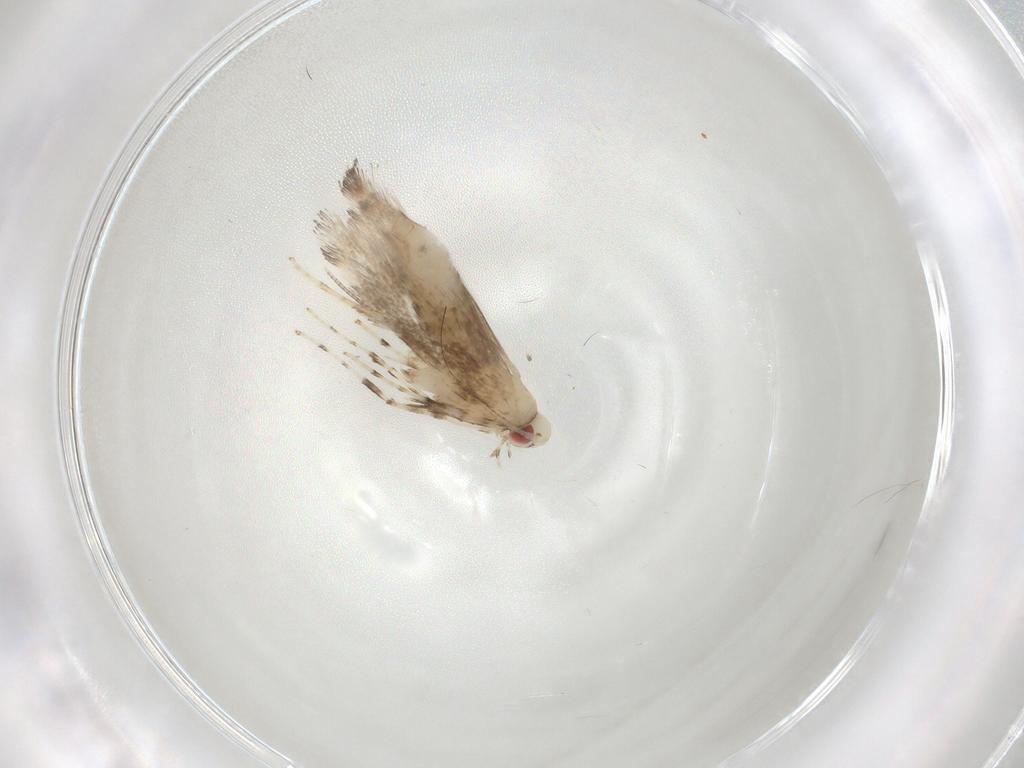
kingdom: Animalia
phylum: Arthropoda
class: Insecta
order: Lepidoptera
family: Gracillariidae
